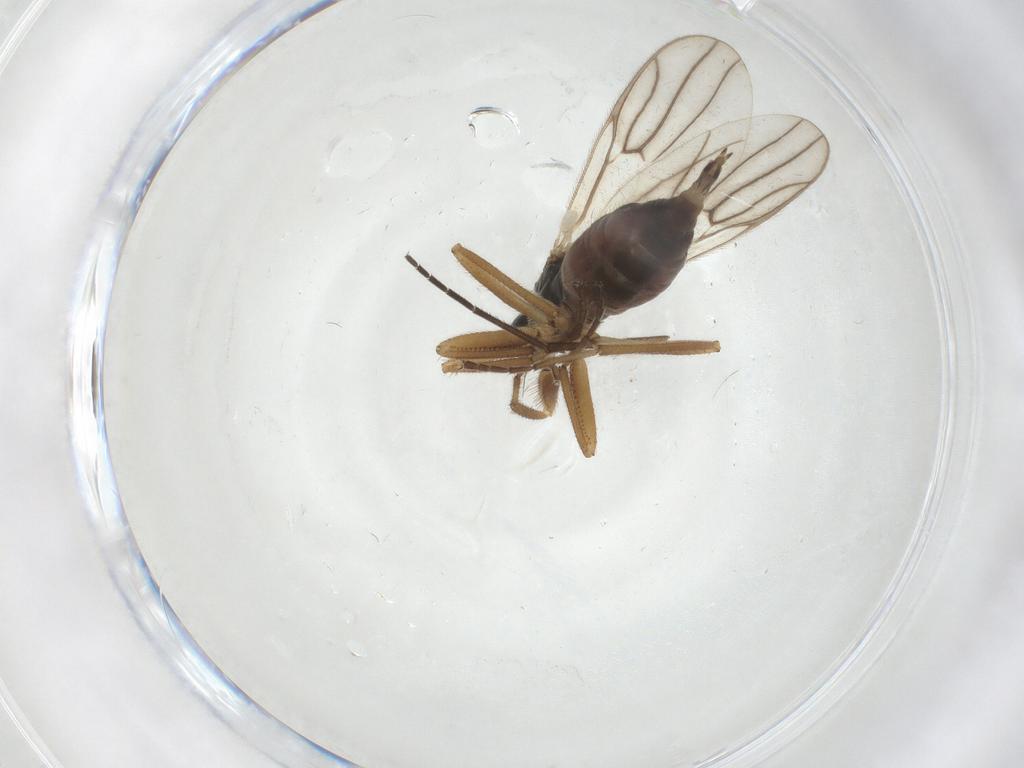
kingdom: Animalia
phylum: Arthropoda
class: Insecta
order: Diptera
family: Hybotidae
